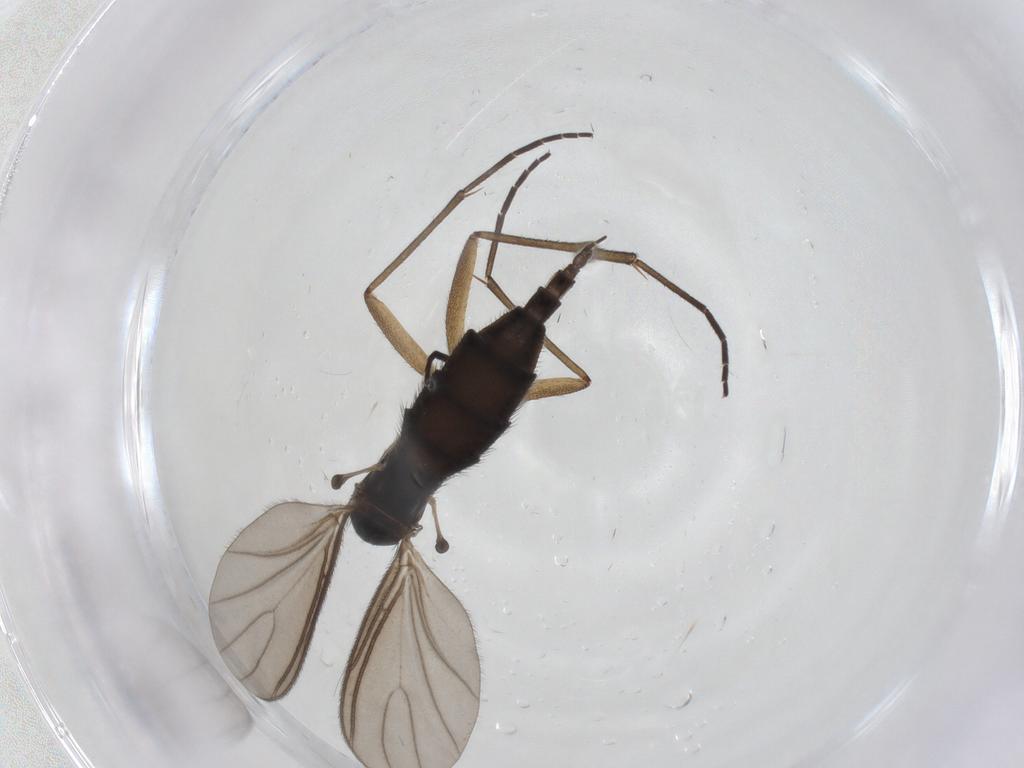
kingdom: Animalia
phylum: Arthropoda
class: Insecta
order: Diptera
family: Sciaridae
